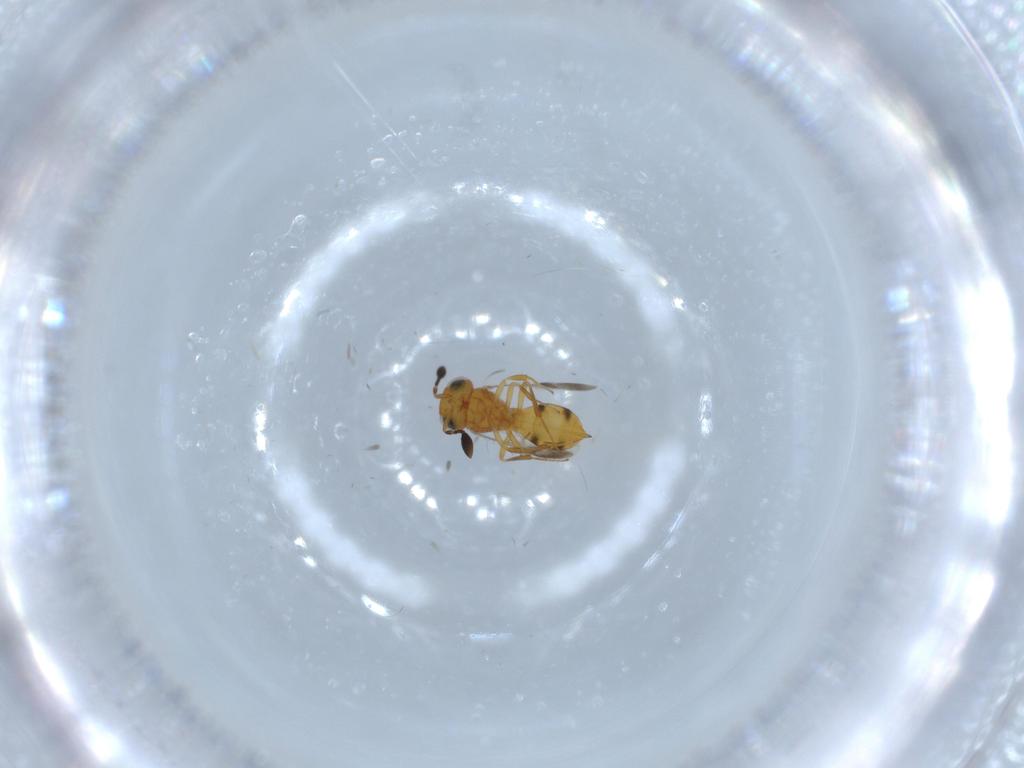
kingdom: Animalia
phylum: Arthropoda
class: Insecta
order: Hymenoptera
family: Scelionidae
